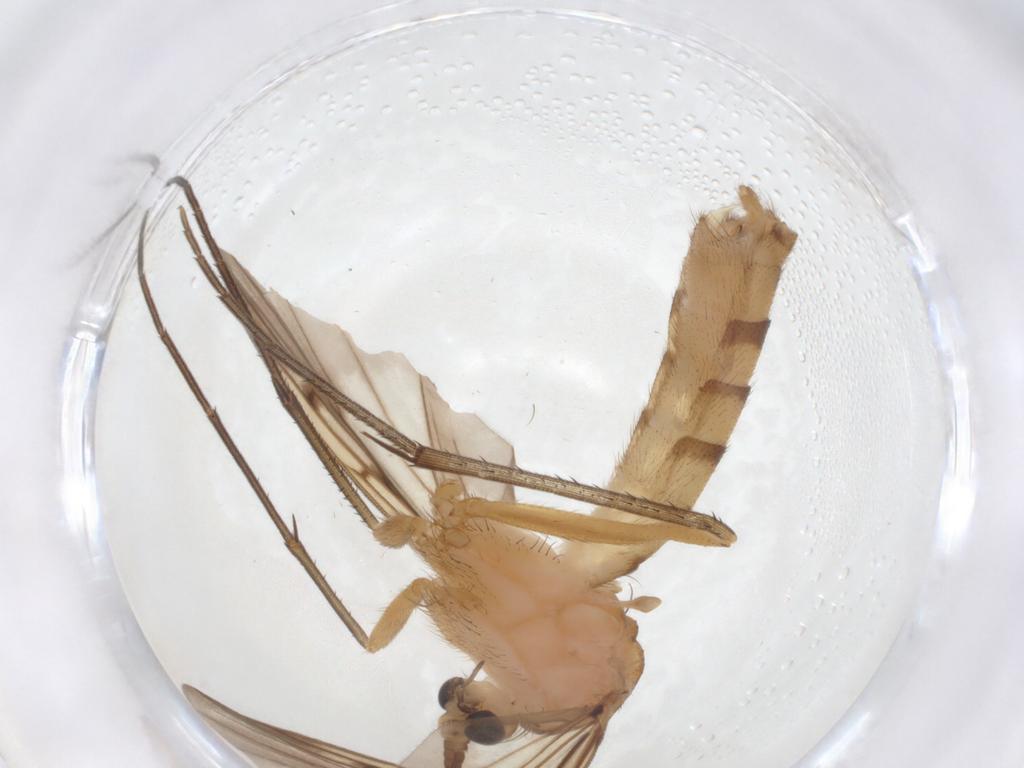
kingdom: Animalia
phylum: Arthropoda
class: Insecta
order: Diptera
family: Mycetophilidae
